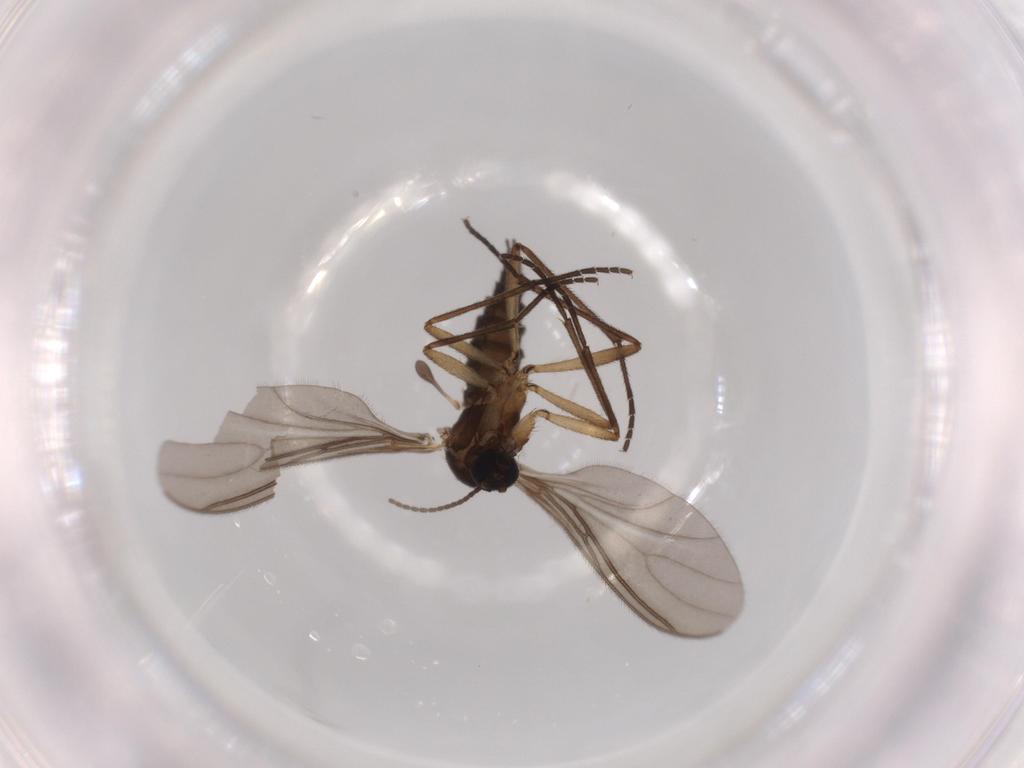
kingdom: Animalia
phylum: Arthropoda
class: Insecta
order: Diptera
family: Sciaridae
